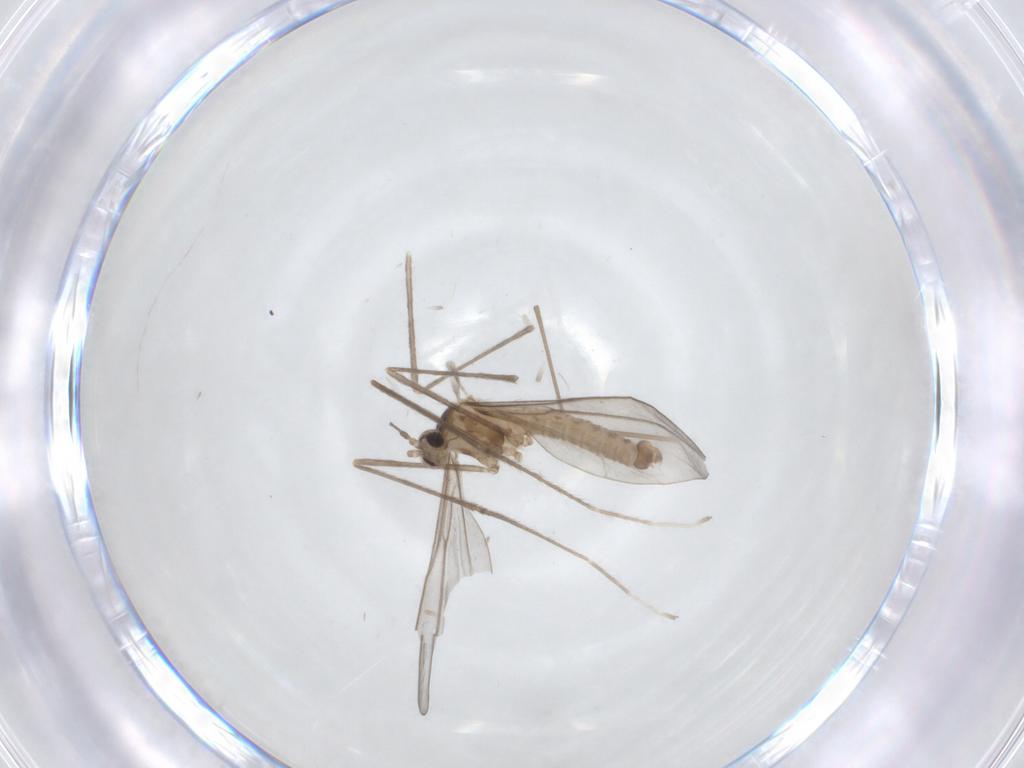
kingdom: Animalia
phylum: Arthropoda
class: Insecta
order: Diptera
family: Cecidomyiidae
